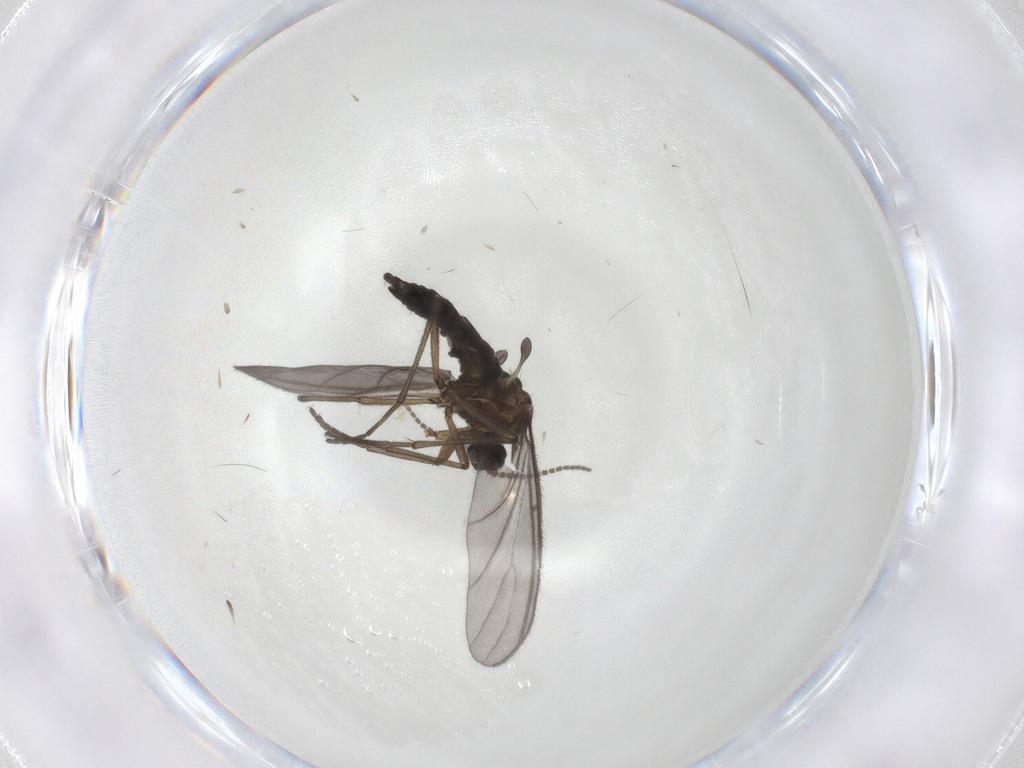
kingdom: Animalia
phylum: Arthropoda
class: Insecta
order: Diptera
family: Sciaridae
